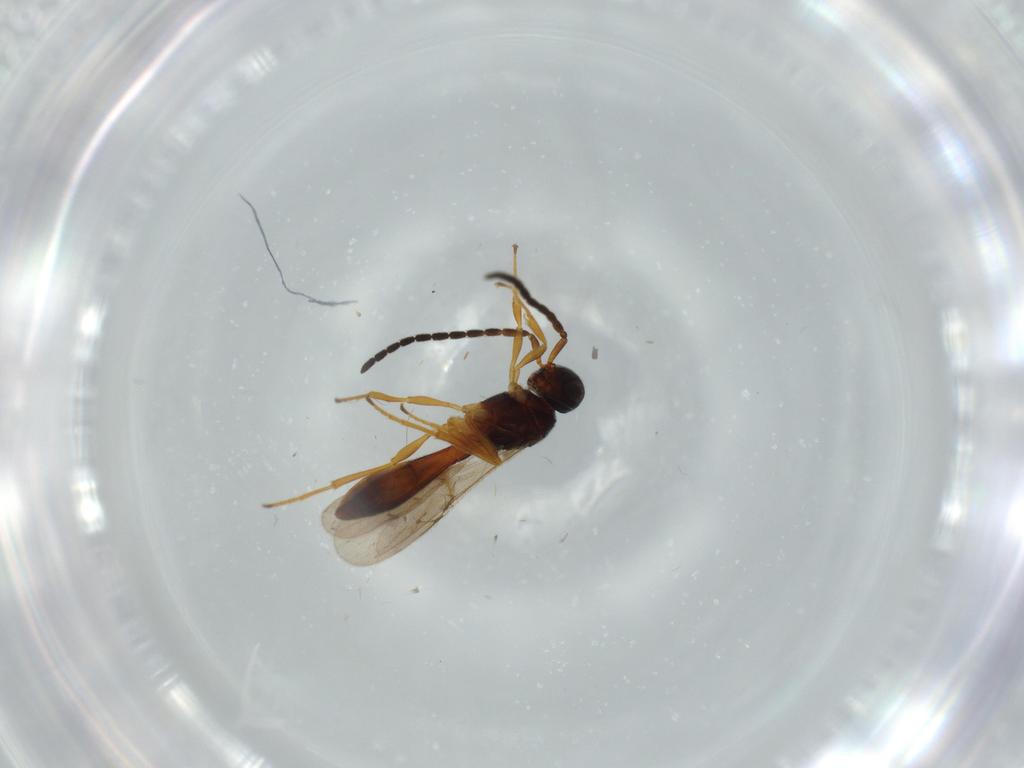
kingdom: Animalia
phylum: Arthropoda
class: Insecta
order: Hymenoptera
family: Scelionidae
